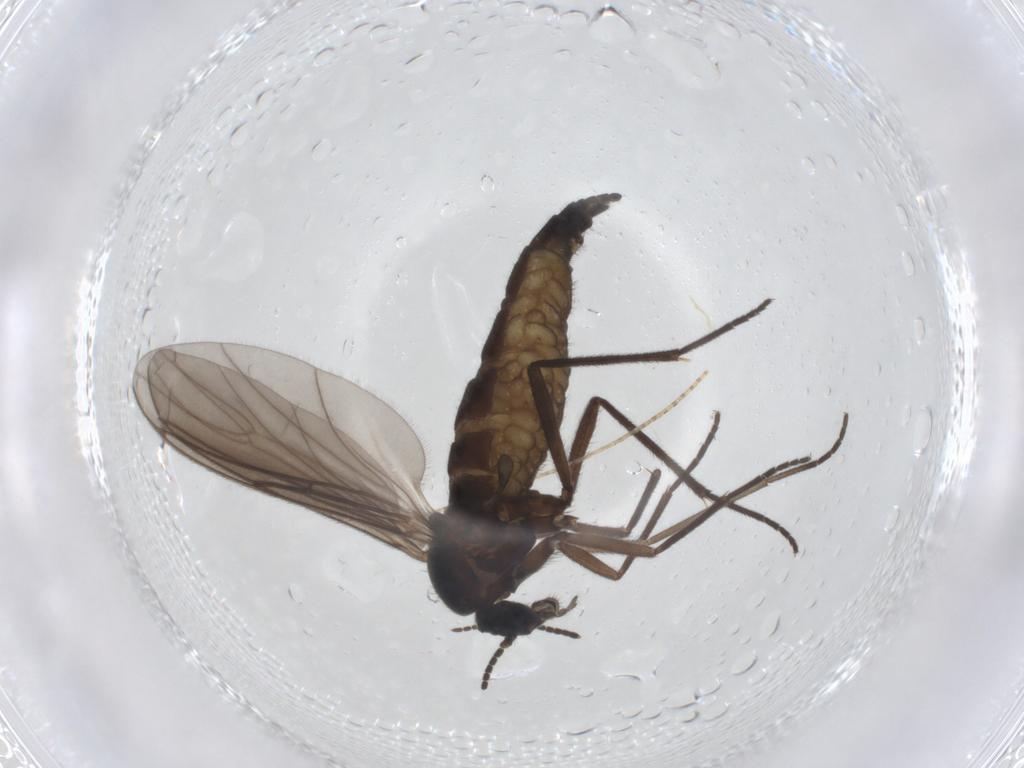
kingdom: Animalia
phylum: Arthropoda
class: Insecta
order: Diptera
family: Sciaridae
